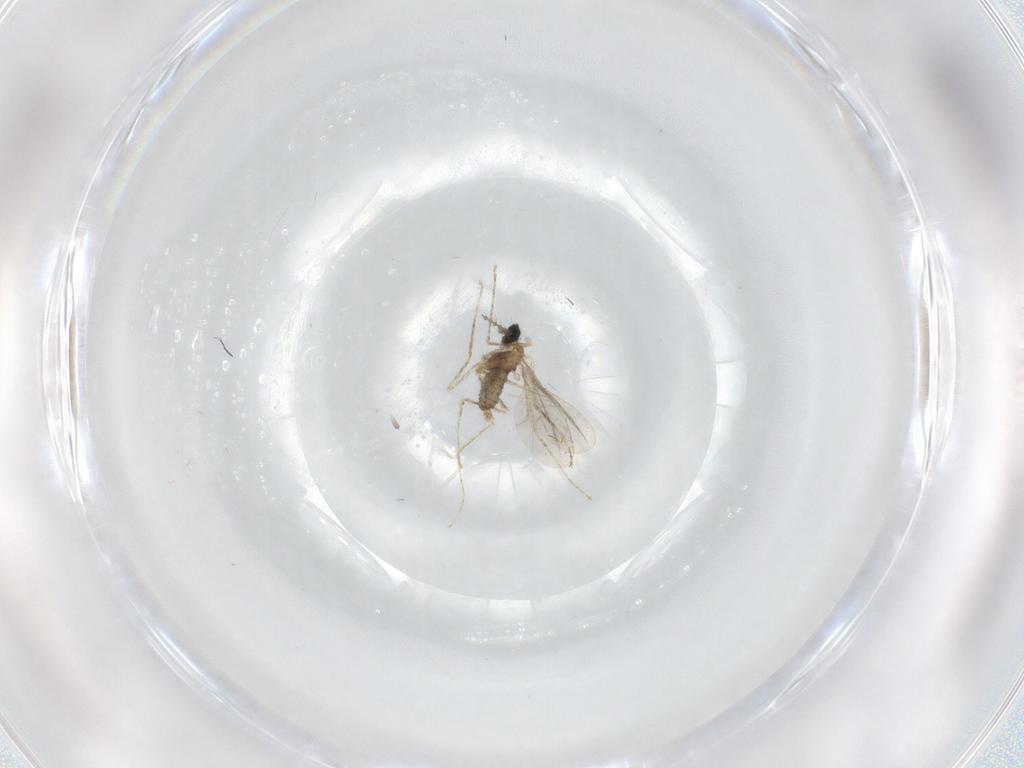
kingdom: Animalia
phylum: Arthropoda
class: Insecta
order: Diptera
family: Cecidomyiidae
